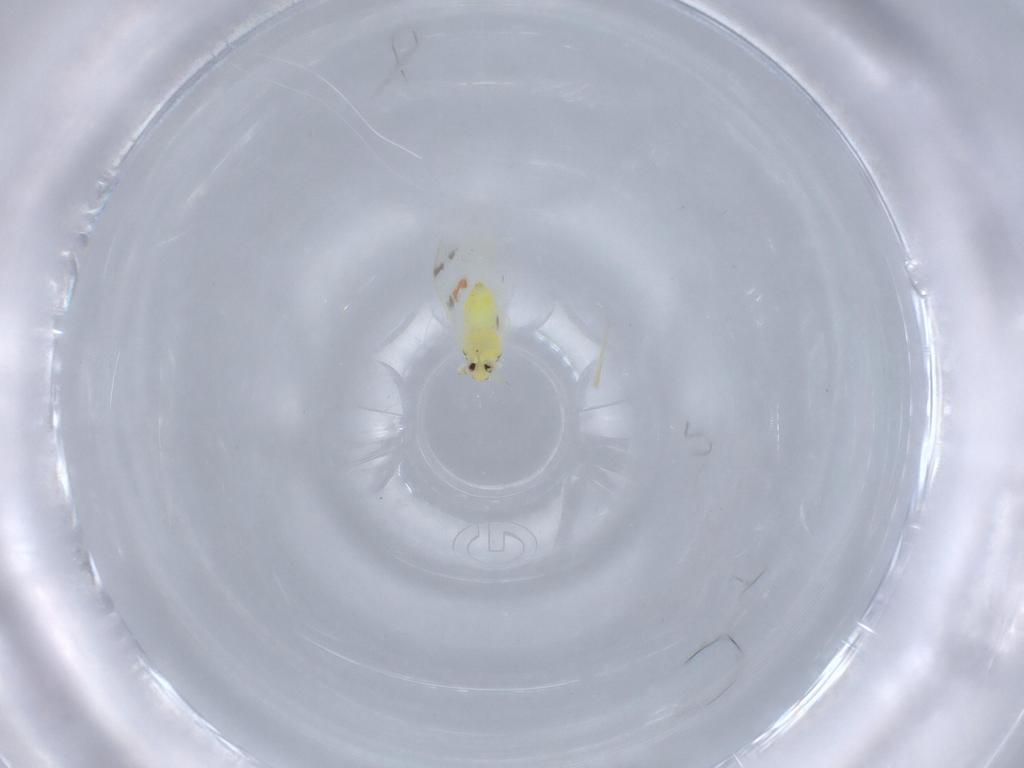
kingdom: Animalia
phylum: Arthropoda
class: Insecta
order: Hemiptera
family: Aleyrodidae
